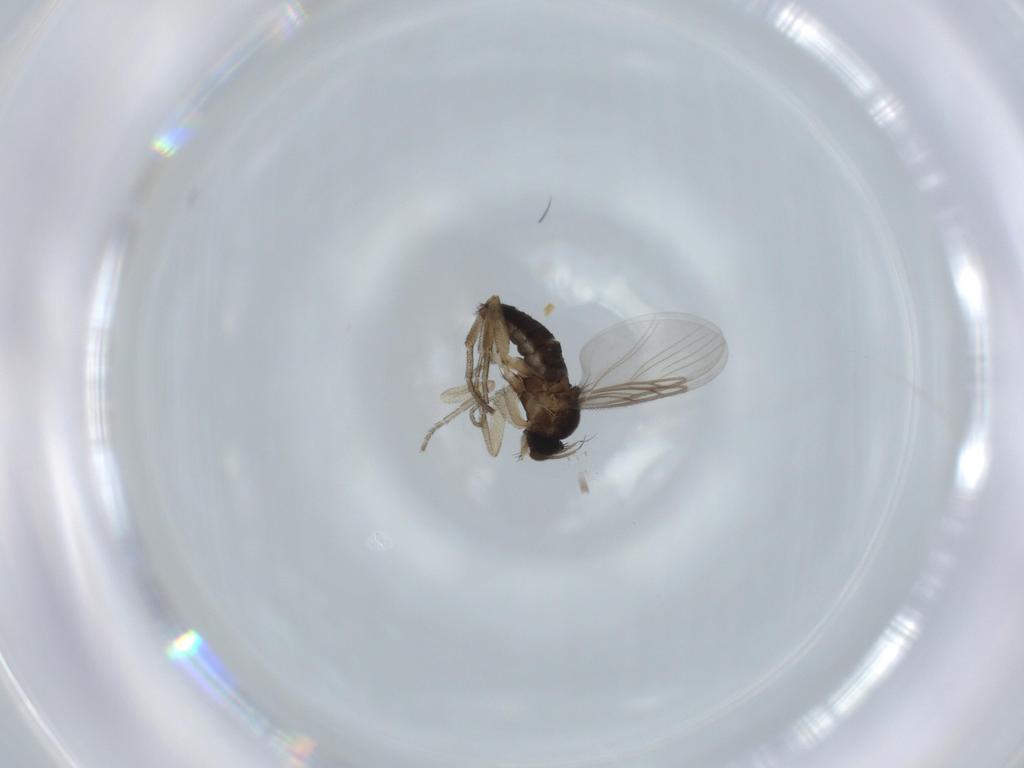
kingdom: Animalia
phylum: Arthropoda
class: Insecta
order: Diptera
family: Phoridae
